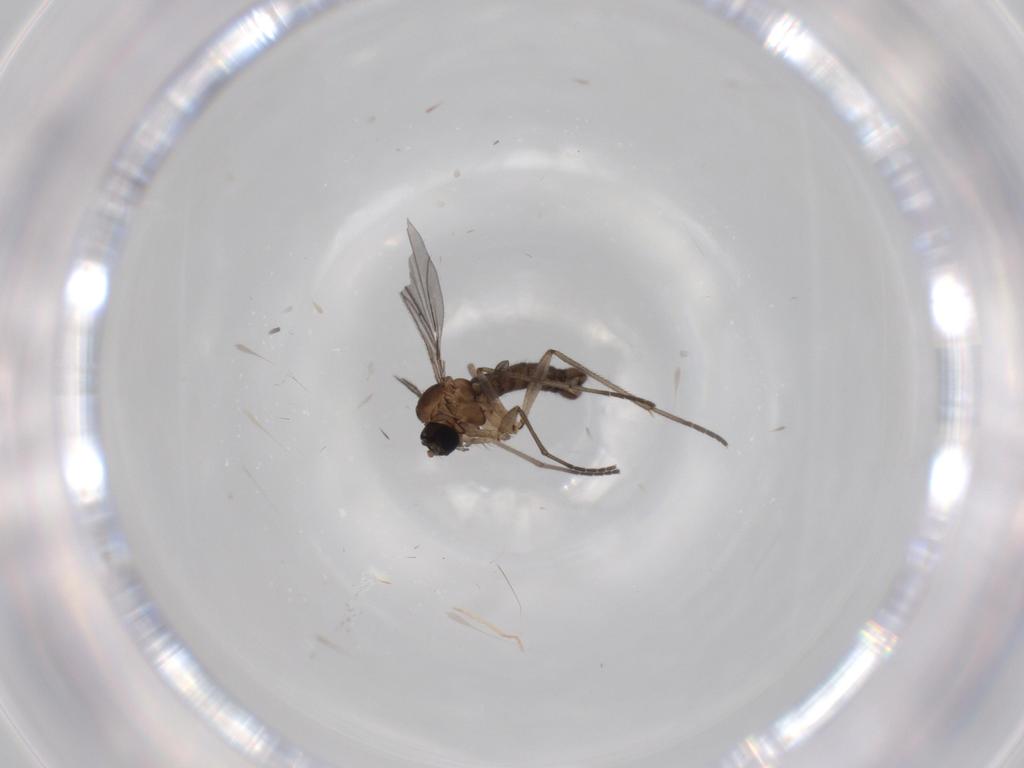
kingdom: Animalia
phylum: Arthropoda
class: Insecta
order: Diptera
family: Sciaridae
